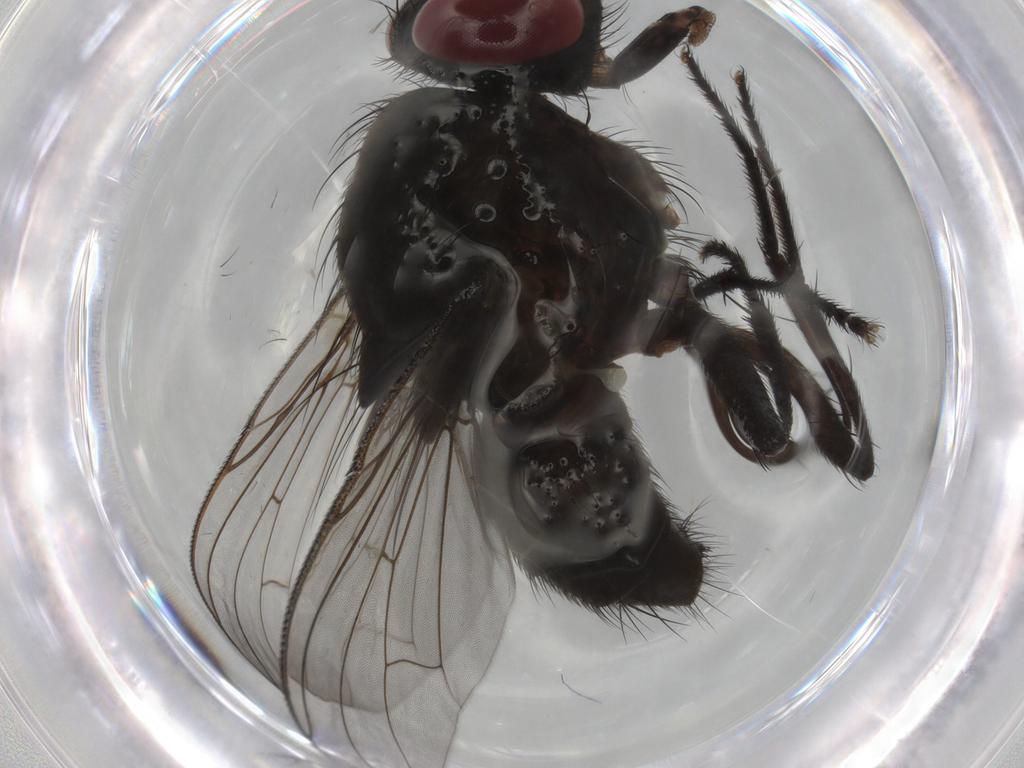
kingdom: Animalia
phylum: Arthropoda
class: Insecta
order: Diptera
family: Muscidae
